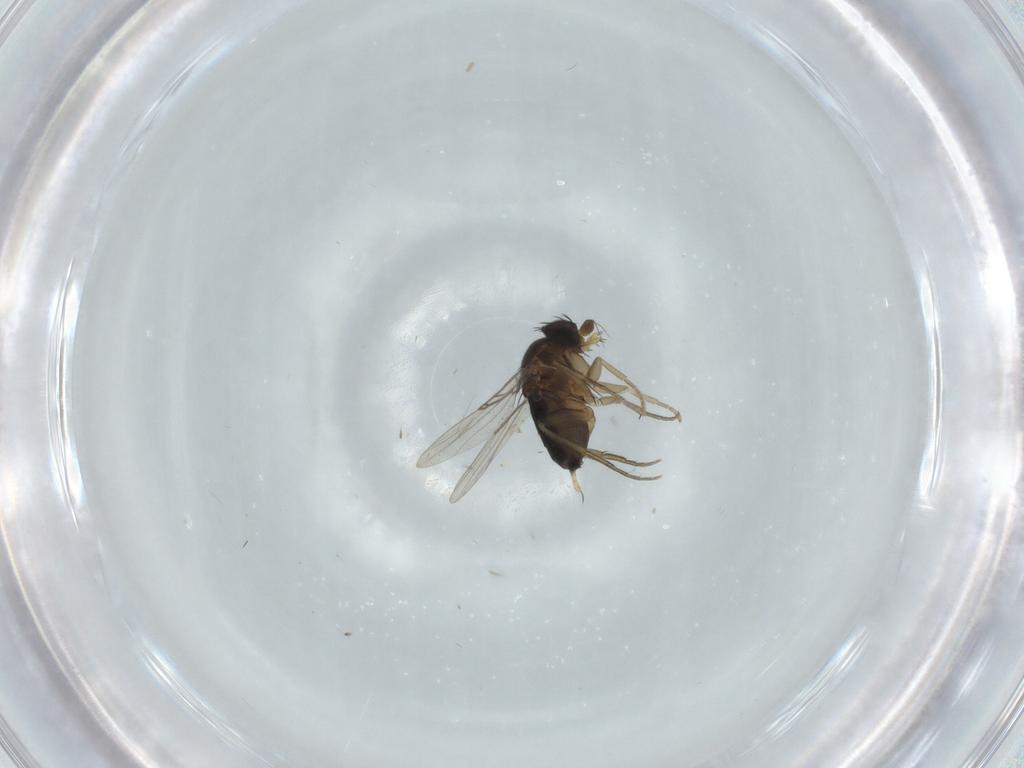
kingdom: Animalia
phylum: Arthropoda
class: Insecta
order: Diptera
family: Phoridae
